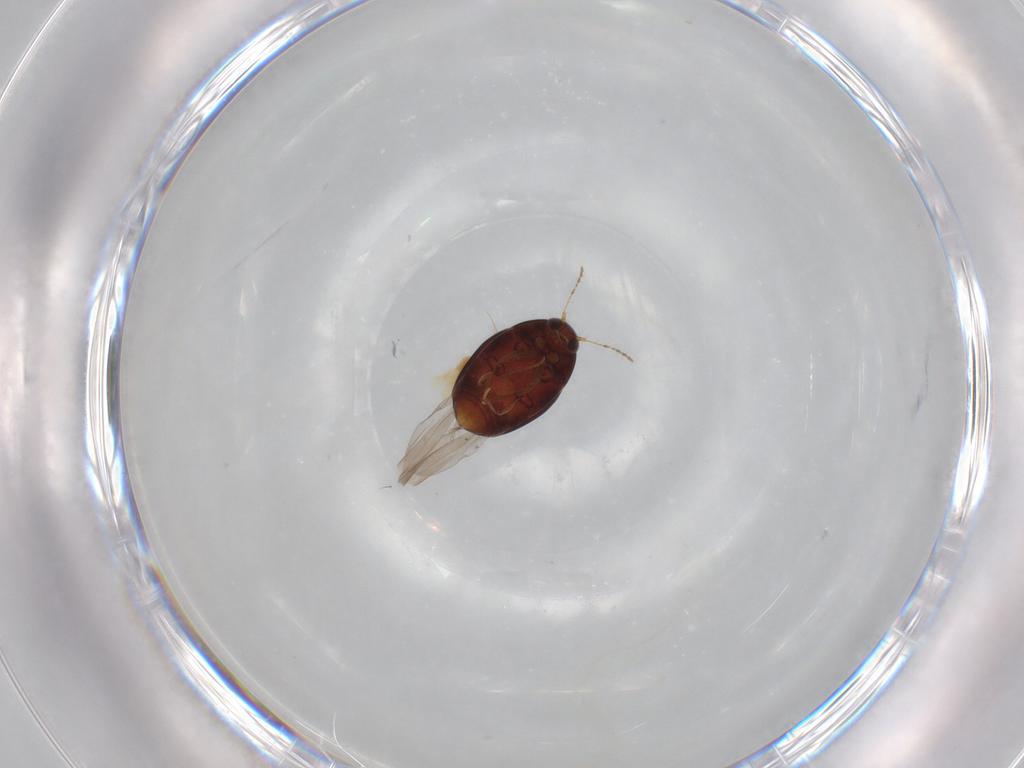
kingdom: Animalia
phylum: Arthropoda
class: Insecta
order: Coleoptera
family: Staphylinidae
